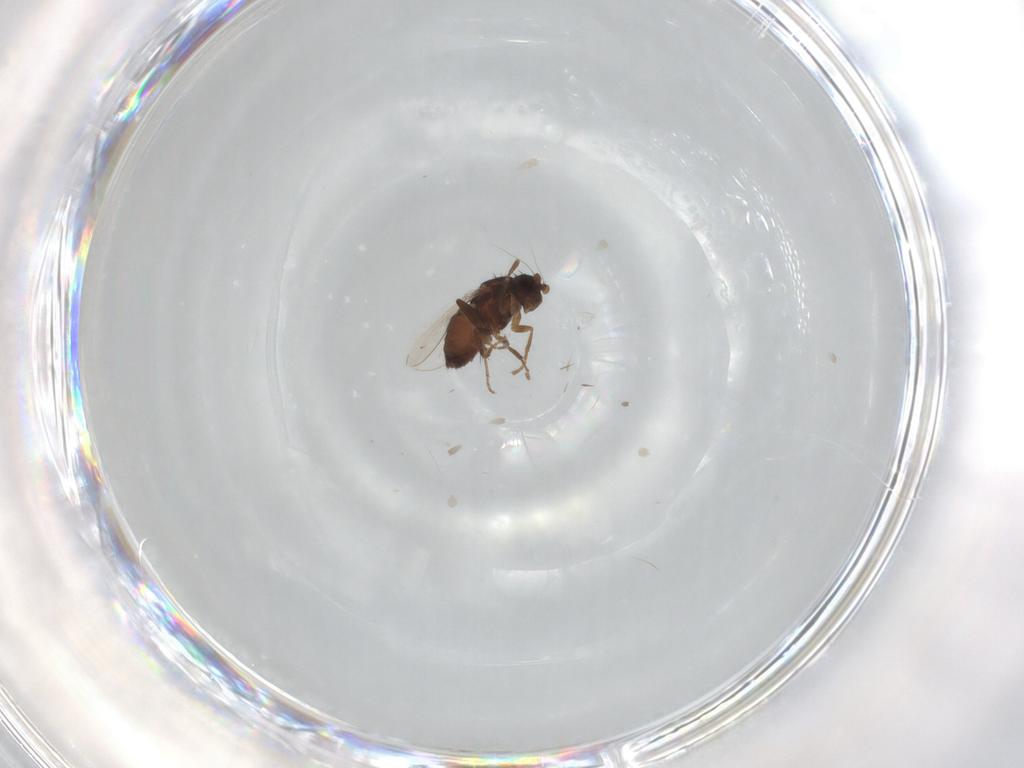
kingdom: Animalia
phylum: Arthropoda
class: Insecta
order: Diptera
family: Sphaeroceridae
